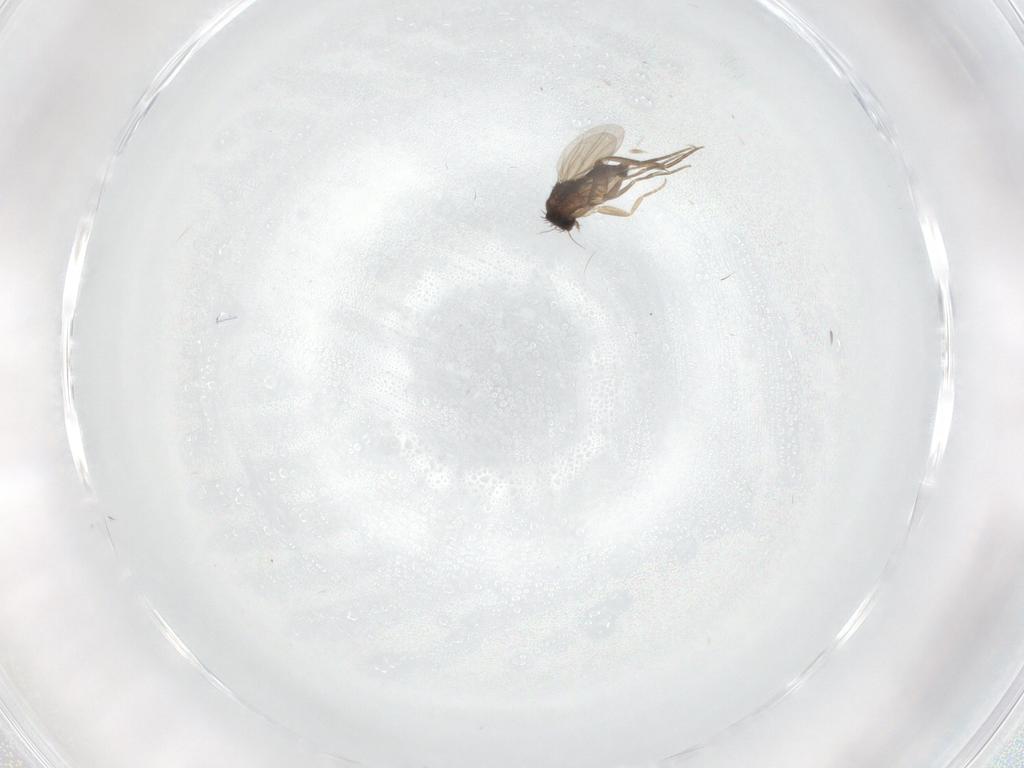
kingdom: Animalia
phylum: Arthropoda
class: Insecta
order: Diptera
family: Phoridae
